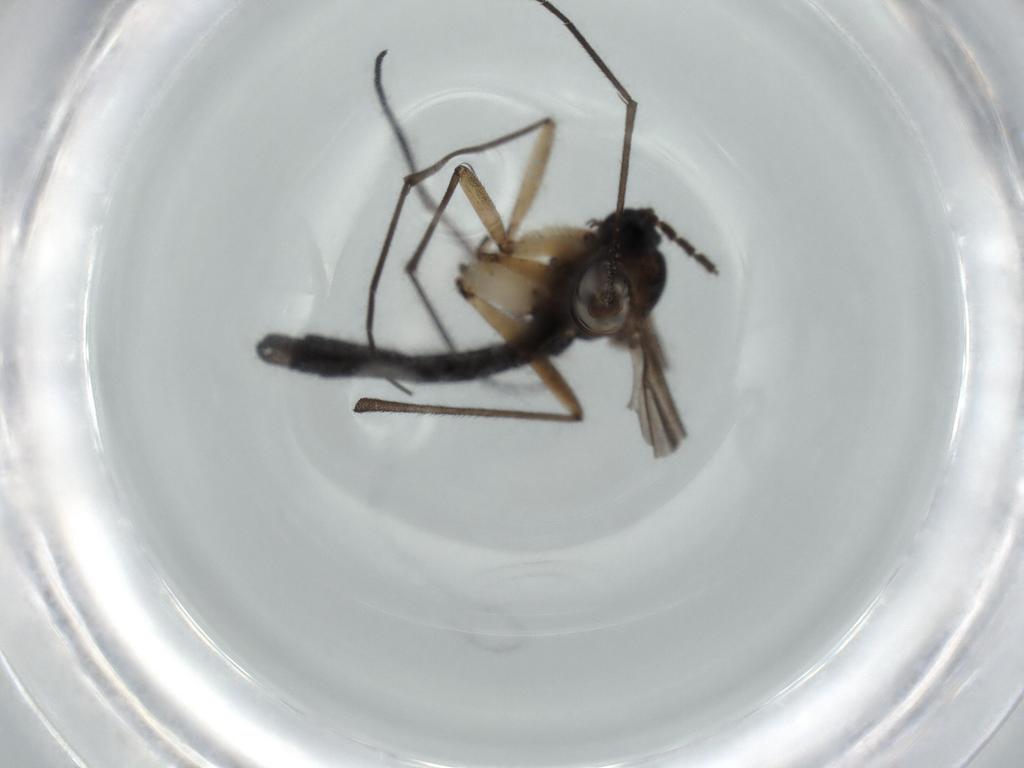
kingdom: Animalia
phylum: Arthropoda
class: Insecta
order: Diptera
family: Sciaridae
